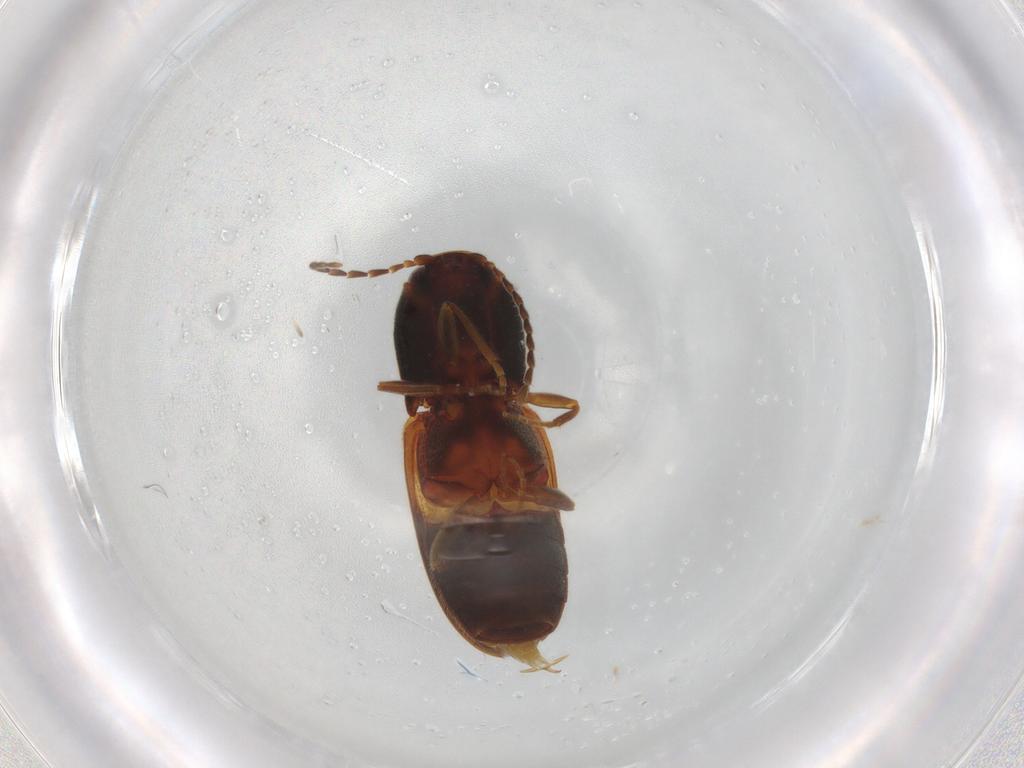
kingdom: Animalia
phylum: Arthropoda
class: Insecta
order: Coleoptera
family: Elateridae
